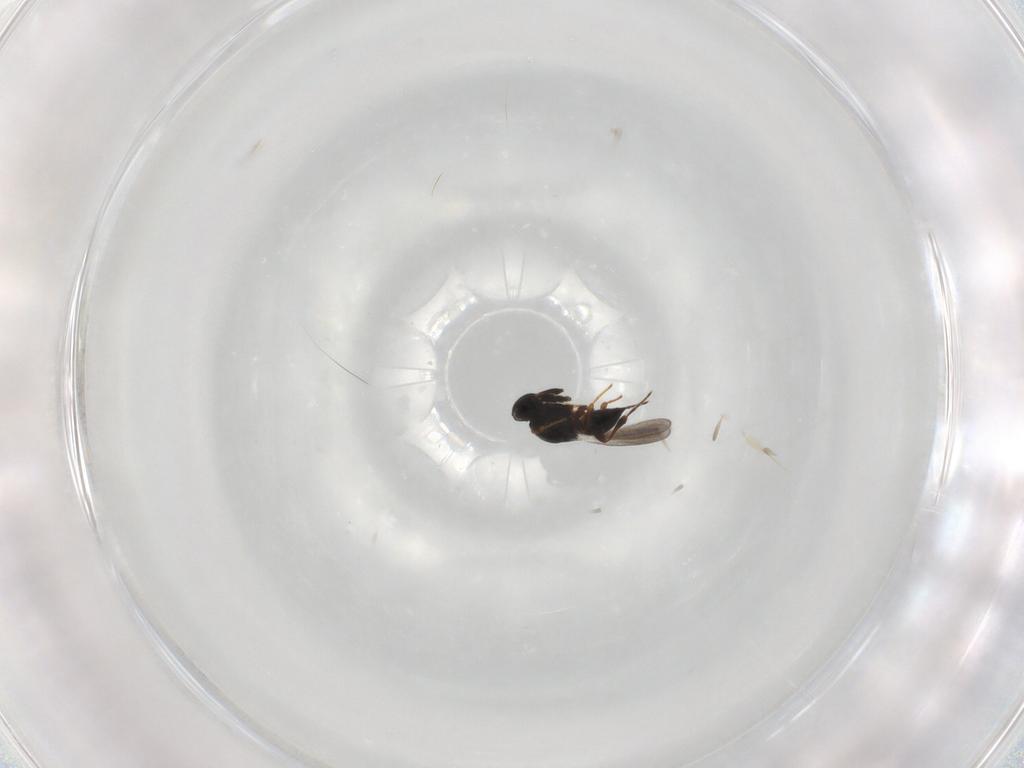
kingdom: Animalia
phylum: Arthropoda
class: Insecta
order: Hymenoptera
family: Platygastridae
